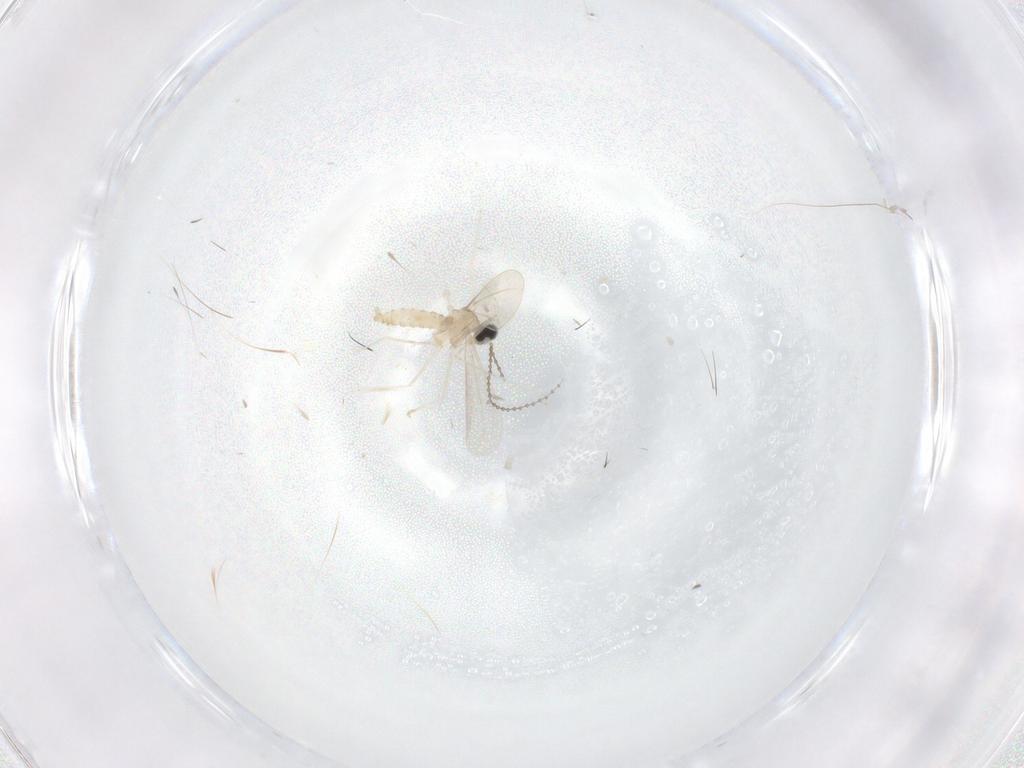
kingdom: Animalia
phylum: Arthropoda
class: Insecta
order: Diptera
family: Cecidomyiidae
